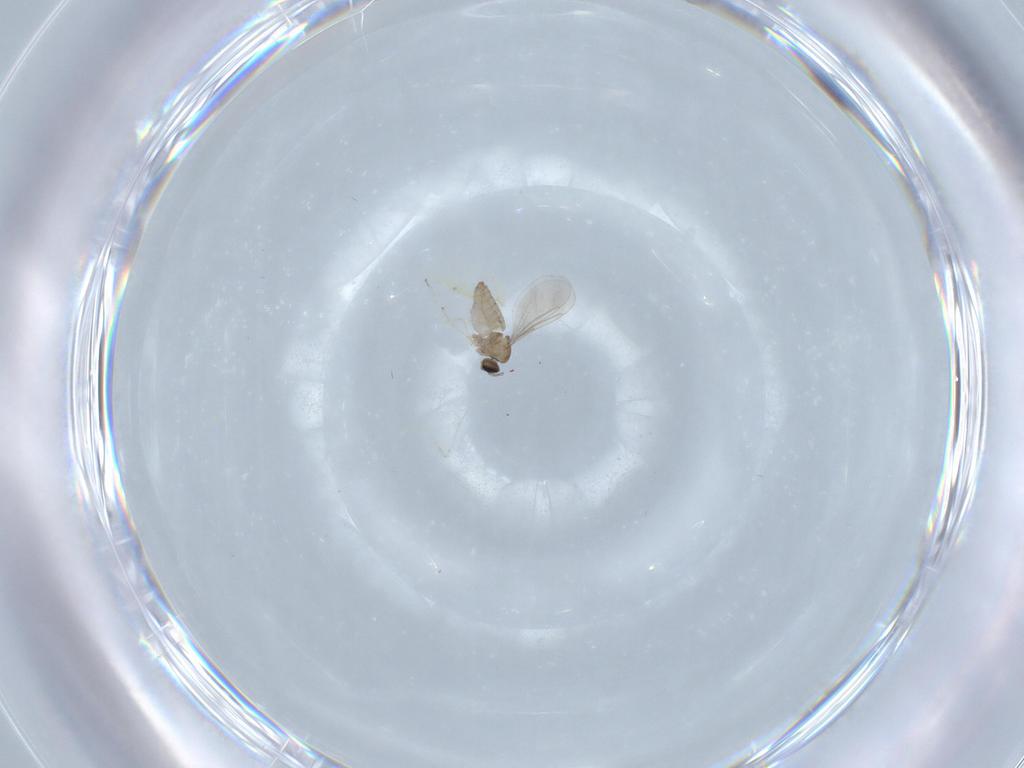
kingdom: Animalia
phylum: Arthropoda
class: Insecta
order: Diptera
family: Cecidomyiidae
